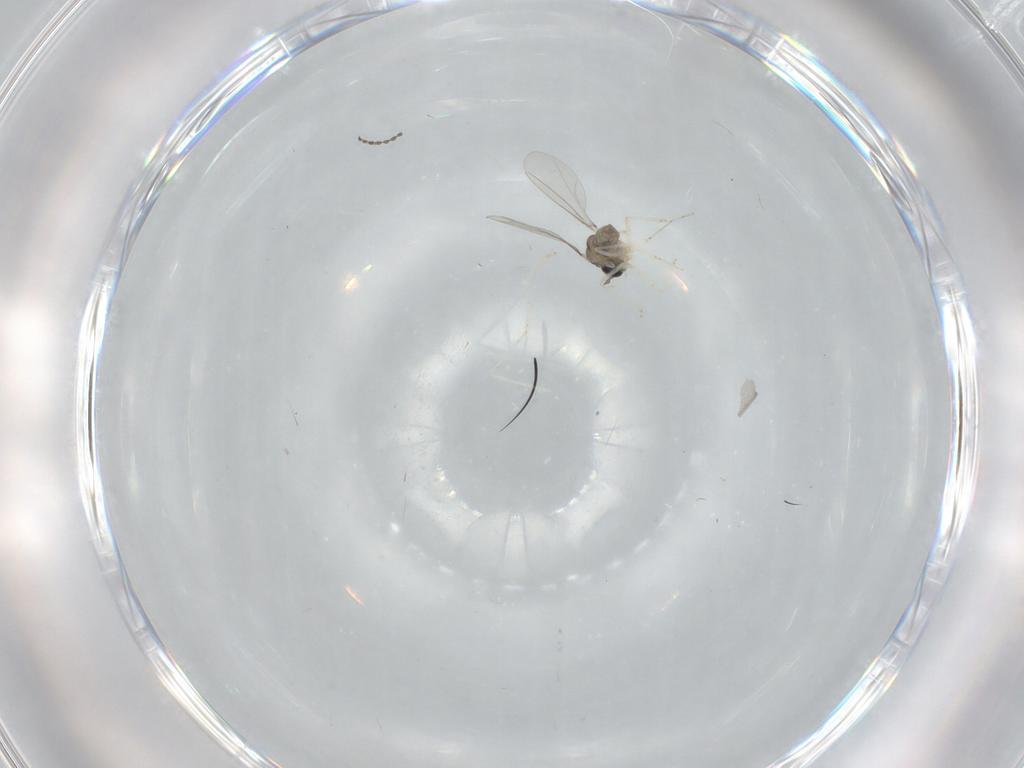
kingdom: Animalia
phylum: Arthropoda
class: Insecta
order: Diptera
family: Cecidomyiidae
